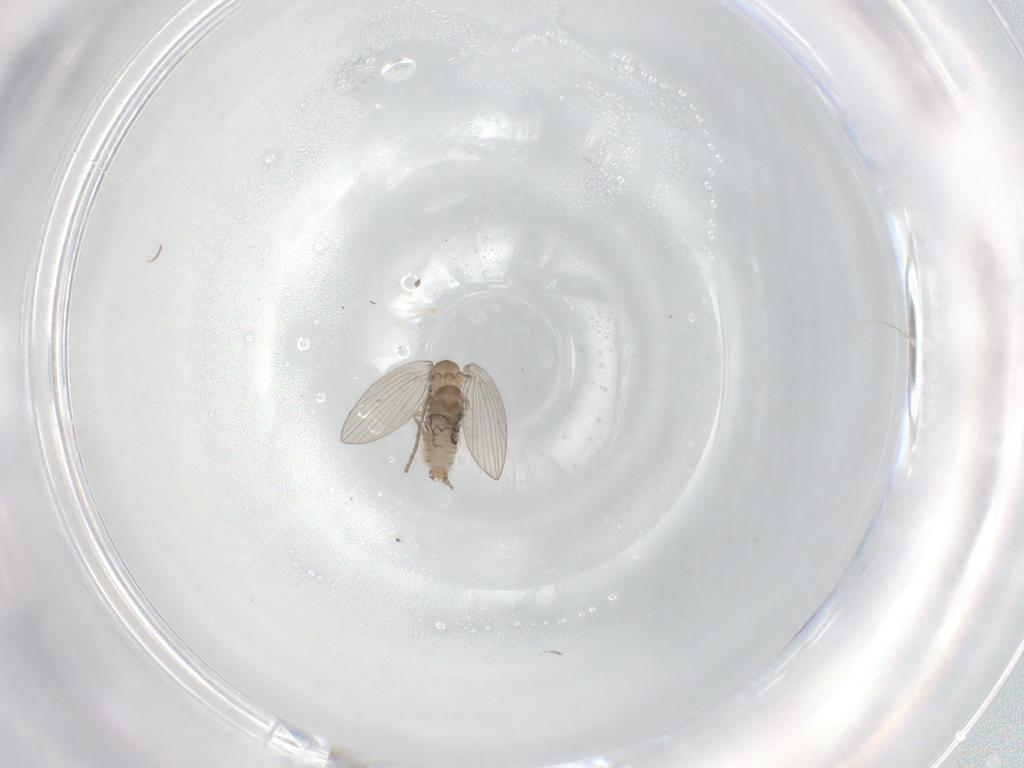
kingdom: Animalia
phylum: Arthropoda
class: Insecta
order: Diptera
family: Psychodidae
